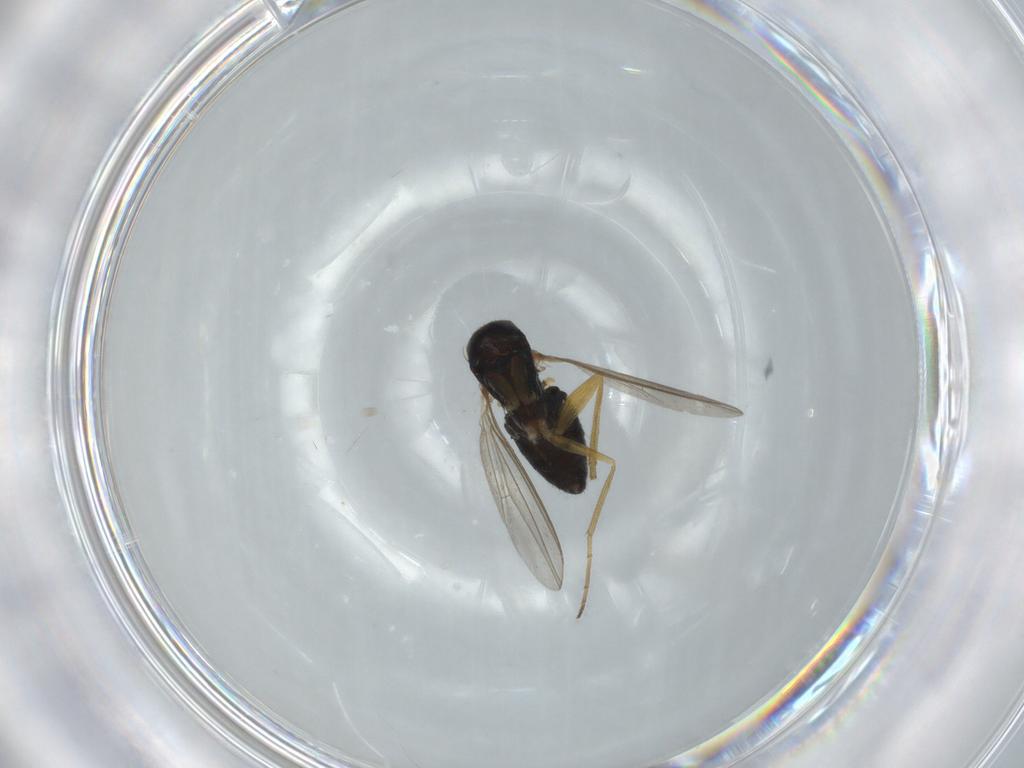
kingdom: Animalia
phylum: Arthropoda
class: Insecta
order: Diptera
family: Dolichopodidae
